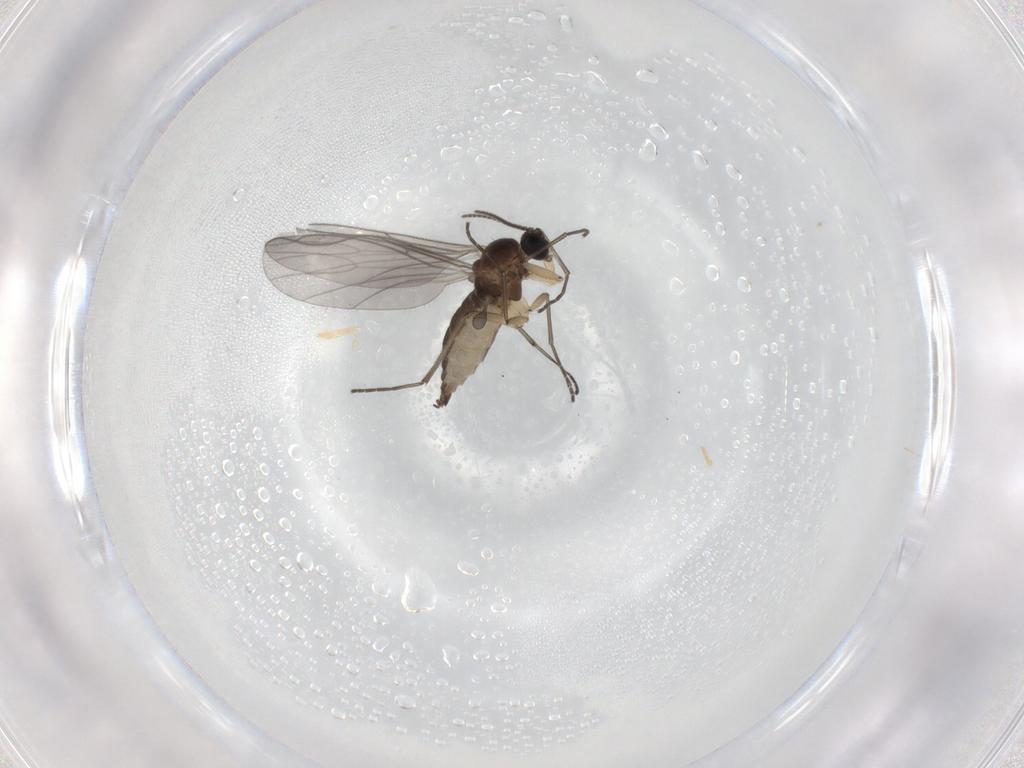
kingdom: Animalia
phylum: Arthropoda
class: Insecta
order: Diptera
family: Sciaridae
